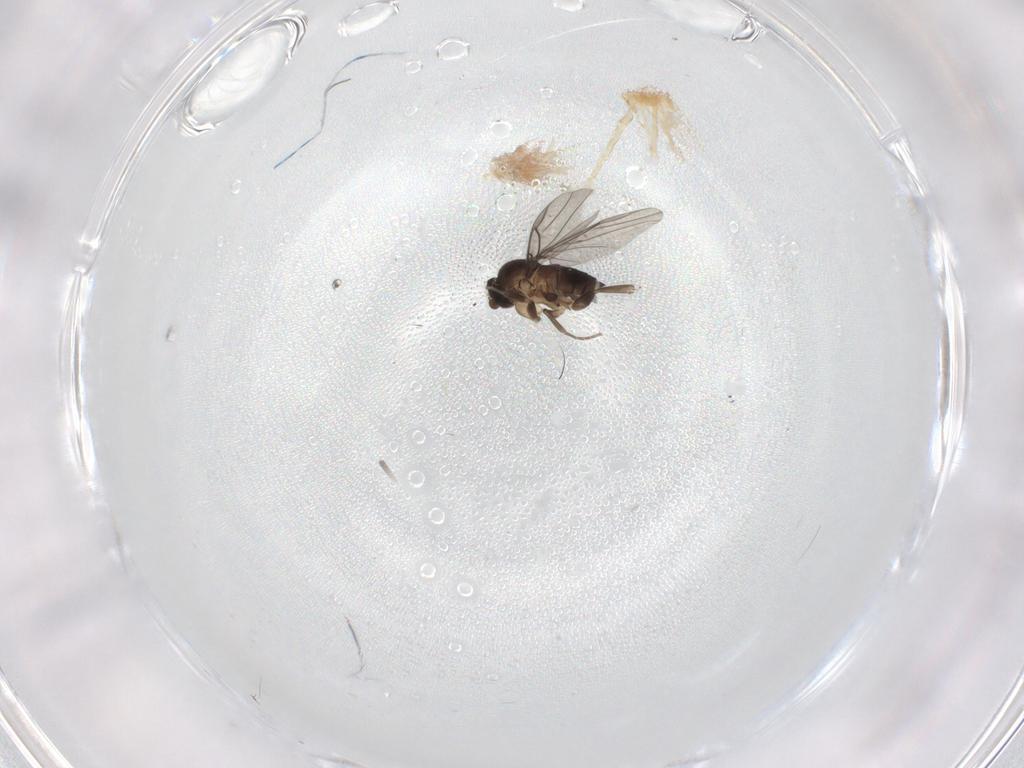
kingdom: Animalia
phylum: Arthropoda
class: Insecta
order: Diptera
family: Phoridae
